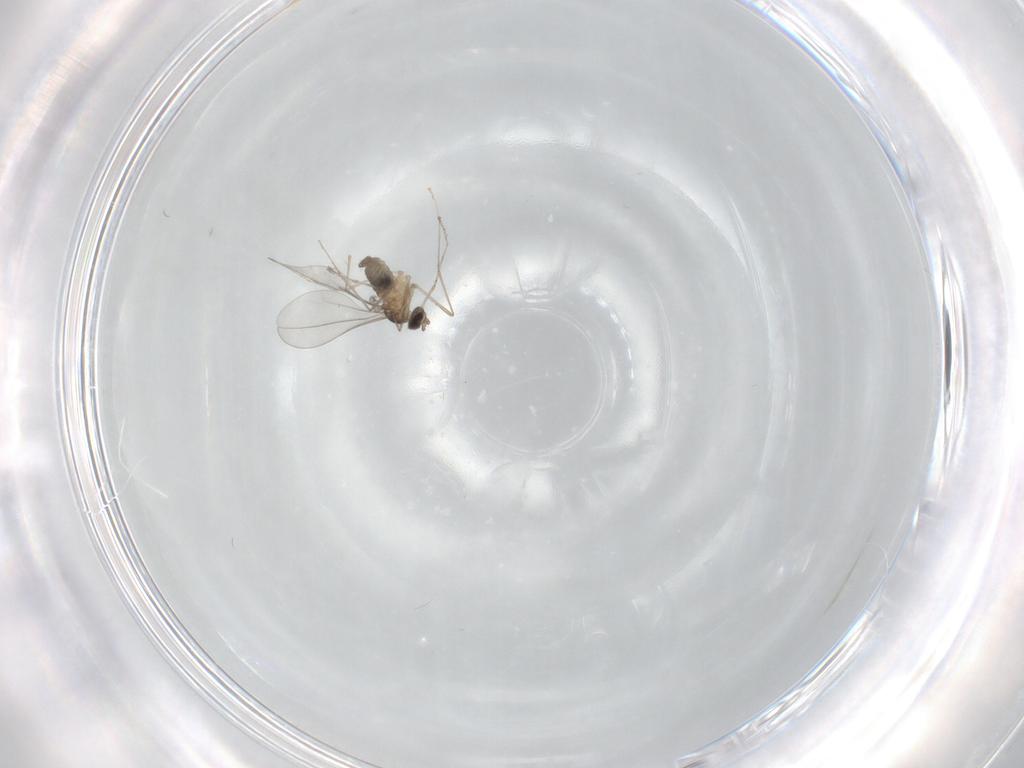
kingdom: Animalia
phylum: Arthropoda
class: Insecta
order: Diptera
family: Cecidomyiidae
